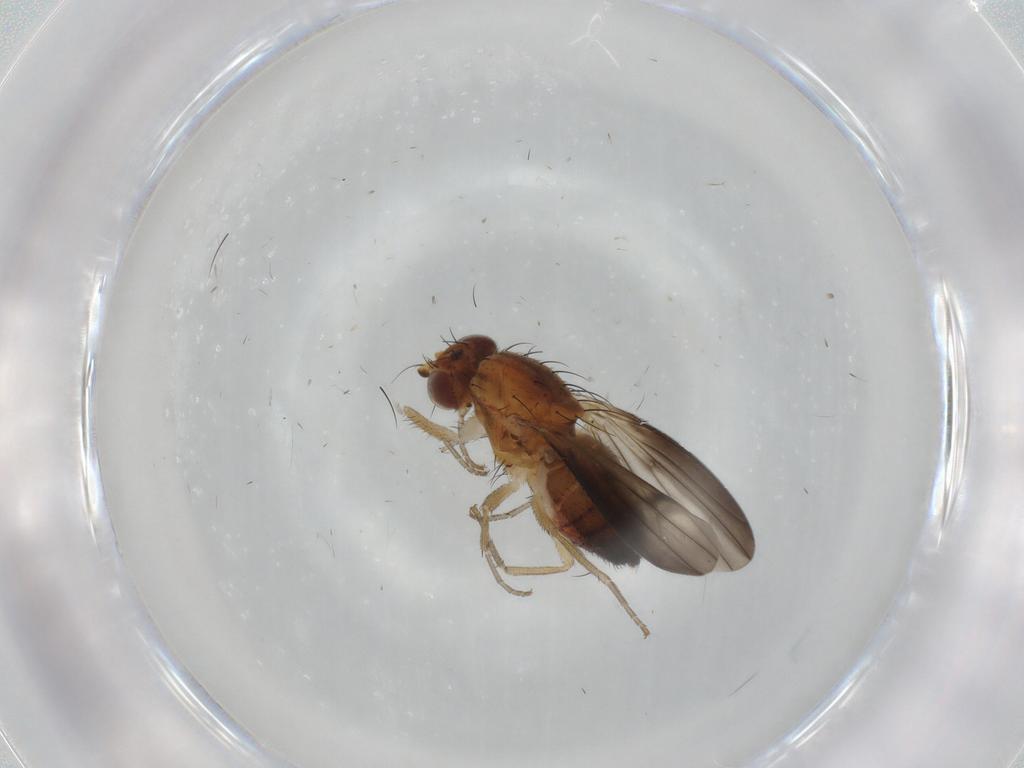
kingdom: Animalia
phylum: Arthropoda
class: Insecta
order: Diptera
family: Heleomyzidae
